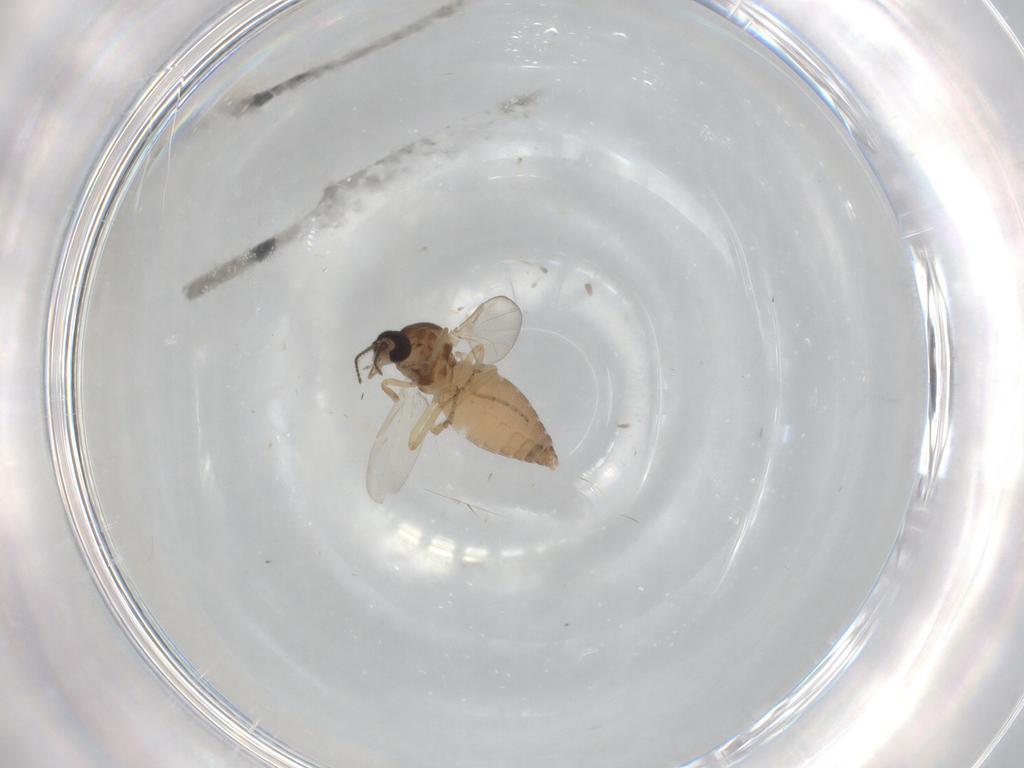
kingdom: Animalia
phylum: Arthropoda
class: Insecta
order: Diptera
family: Ceratopogonidae
